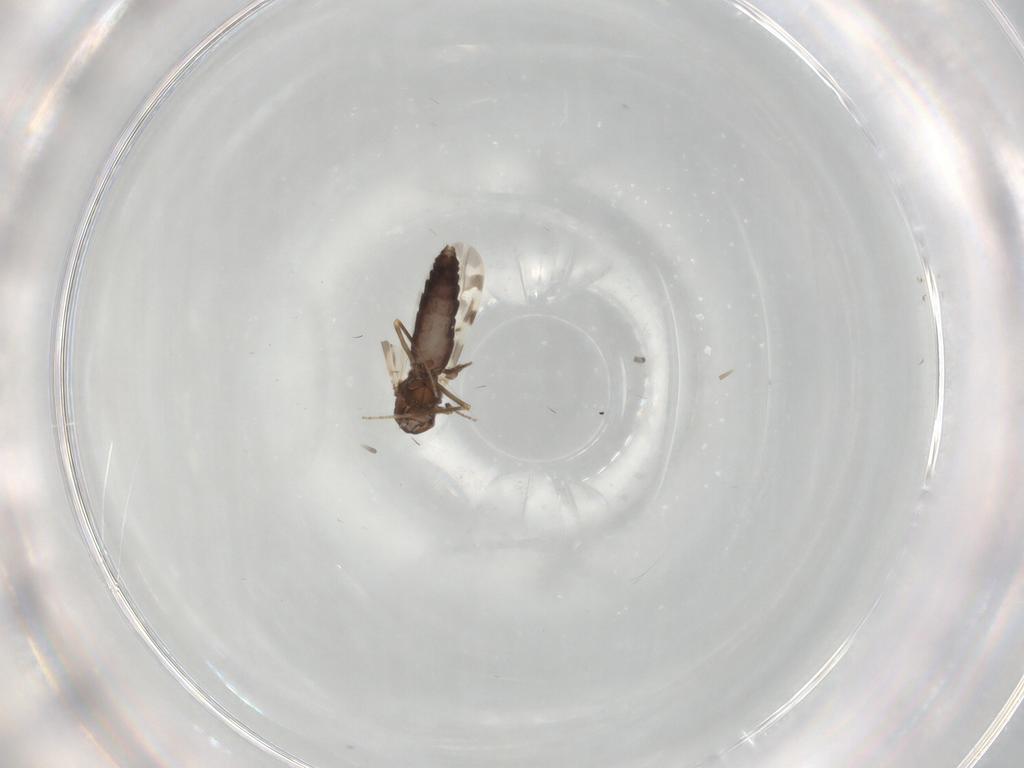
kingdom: Animalia
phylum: Arthropoda
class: Insecta
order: Diptera
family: Ceratopogonidae
